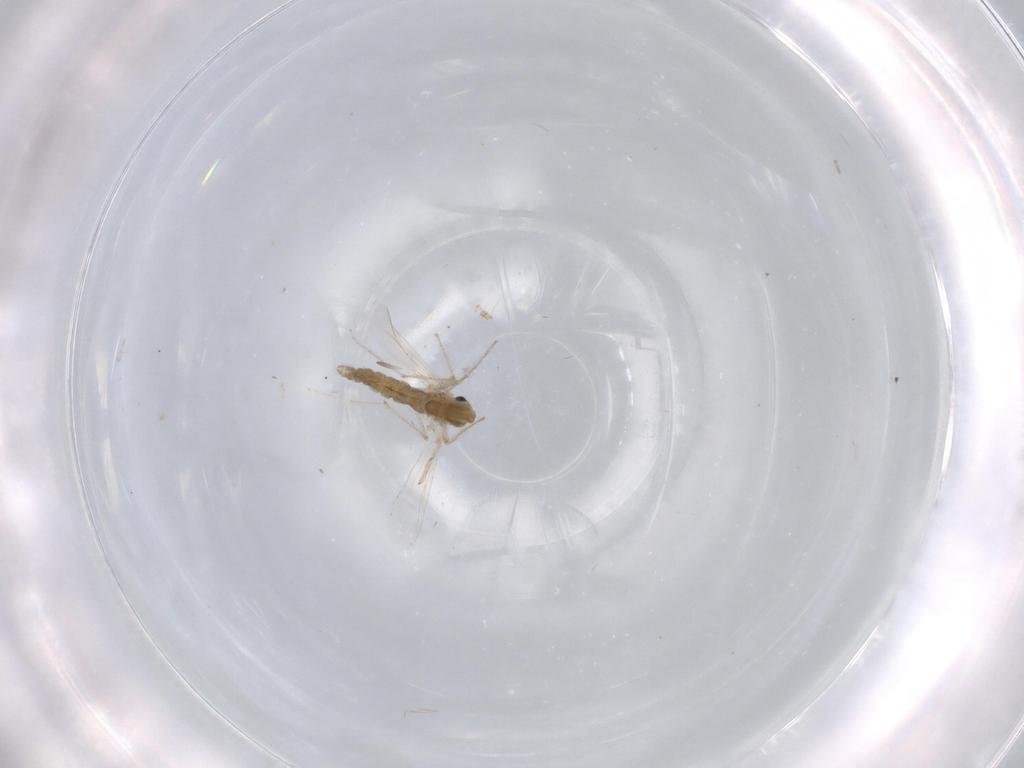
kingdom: Animalia
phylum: Arthropoda
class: Insecta
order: Diptera
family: Chironomidae
